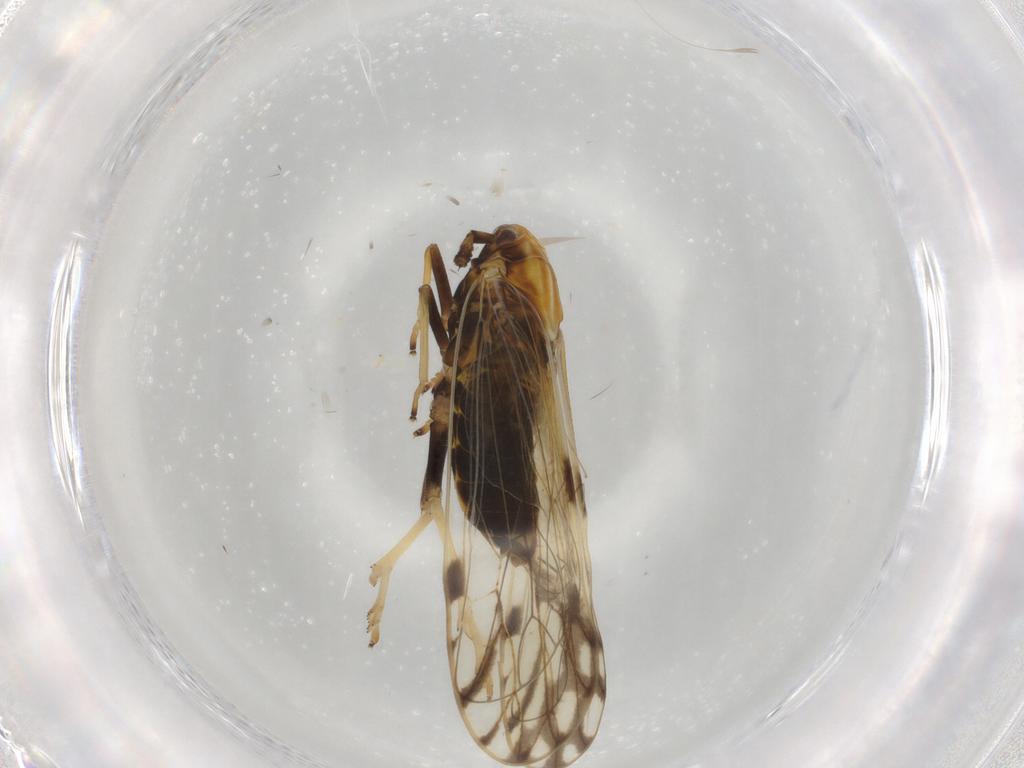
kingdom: Animalia
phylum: Arthropoda
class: Insecta
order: Hemiptera
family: Delphacidae
